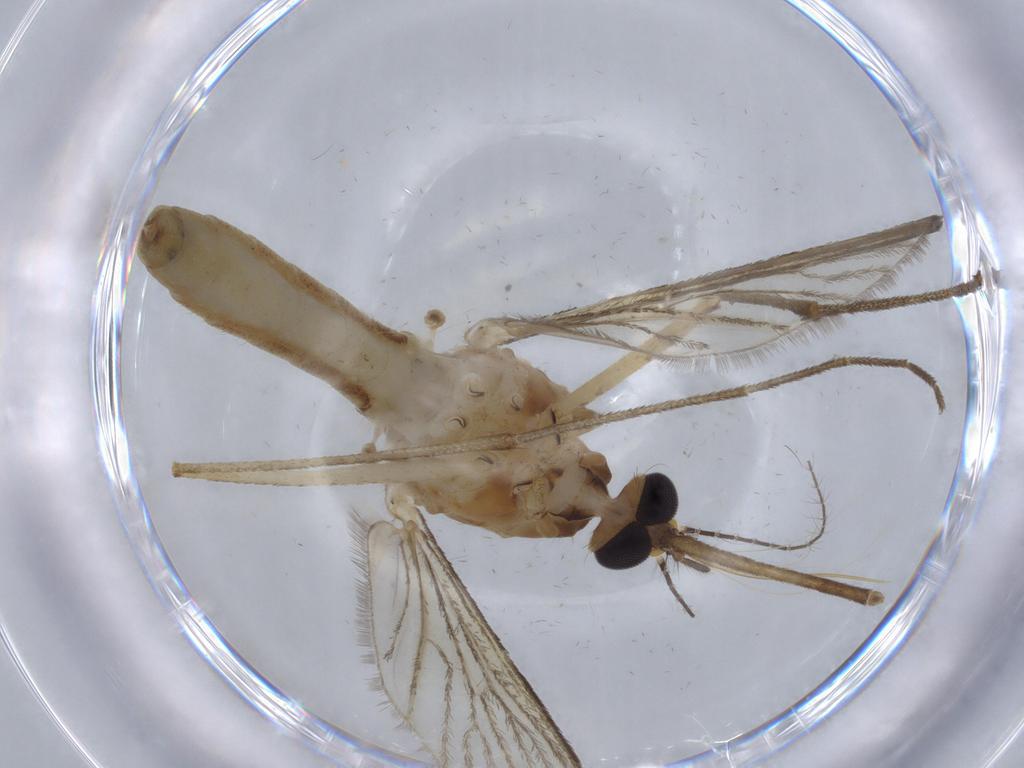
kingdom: Animalia
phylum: Arthropoda
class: Insecta
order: Diptera
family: Ceratopogonidae
